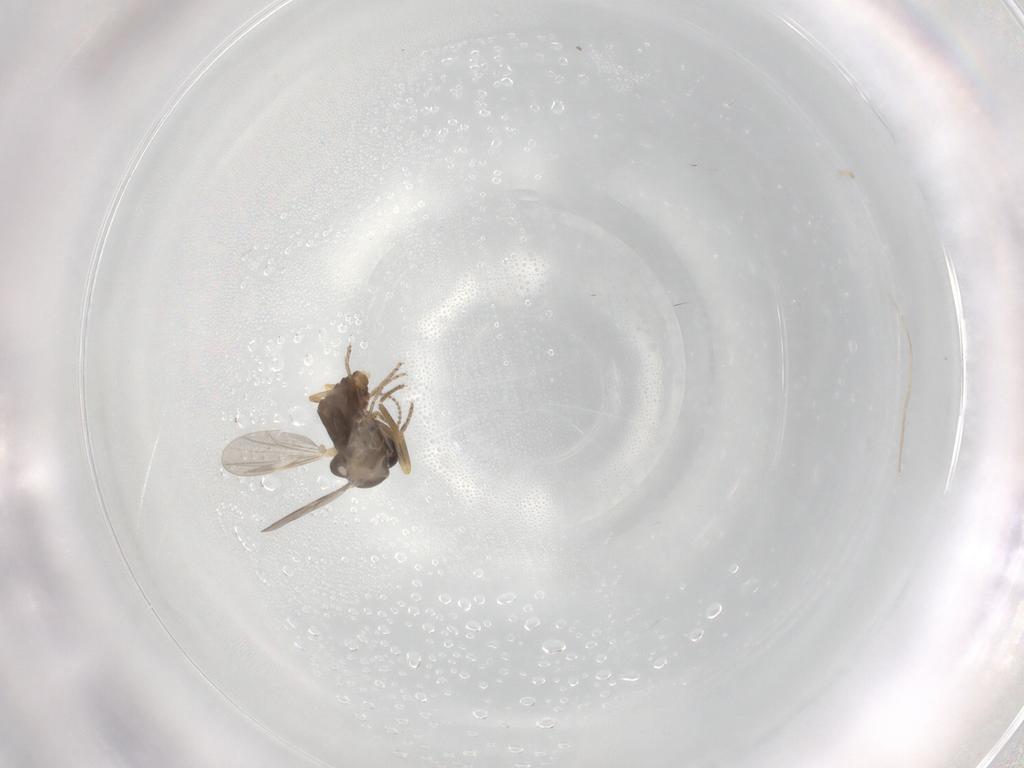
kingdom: Animalia
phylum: Arthropoda
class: Insecta
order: Diptera
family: Ceratopogonidae
